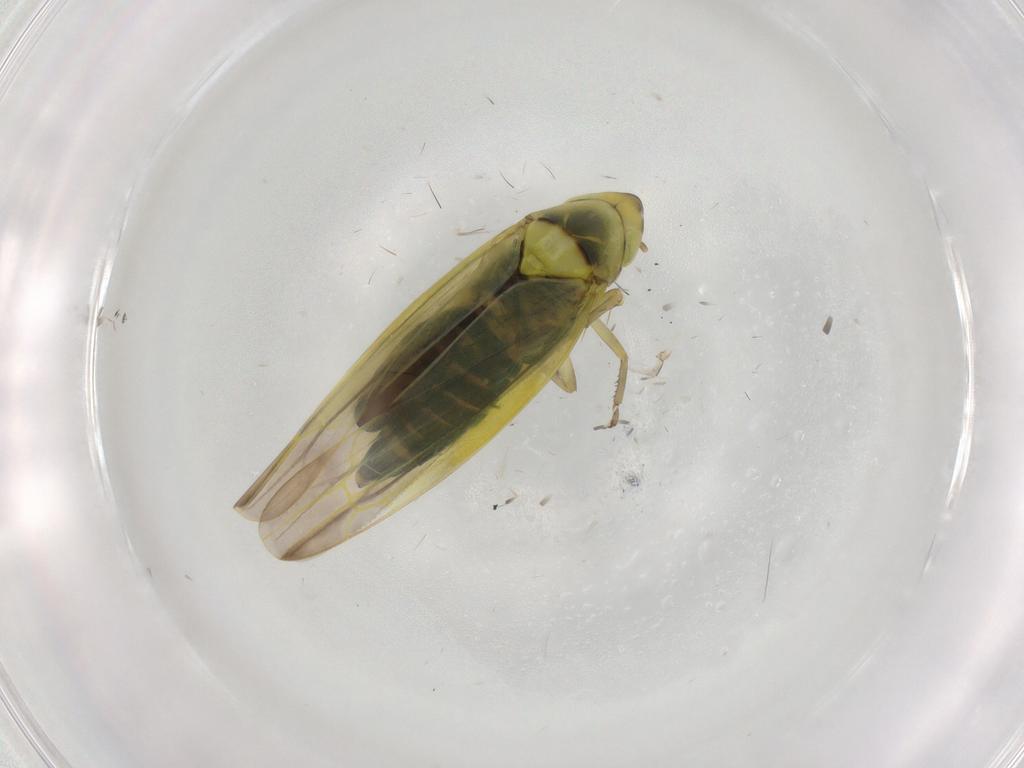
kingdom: Animalia
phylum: Arthropoda
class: Insecta
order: Hemiptera
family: Cicadellidae
